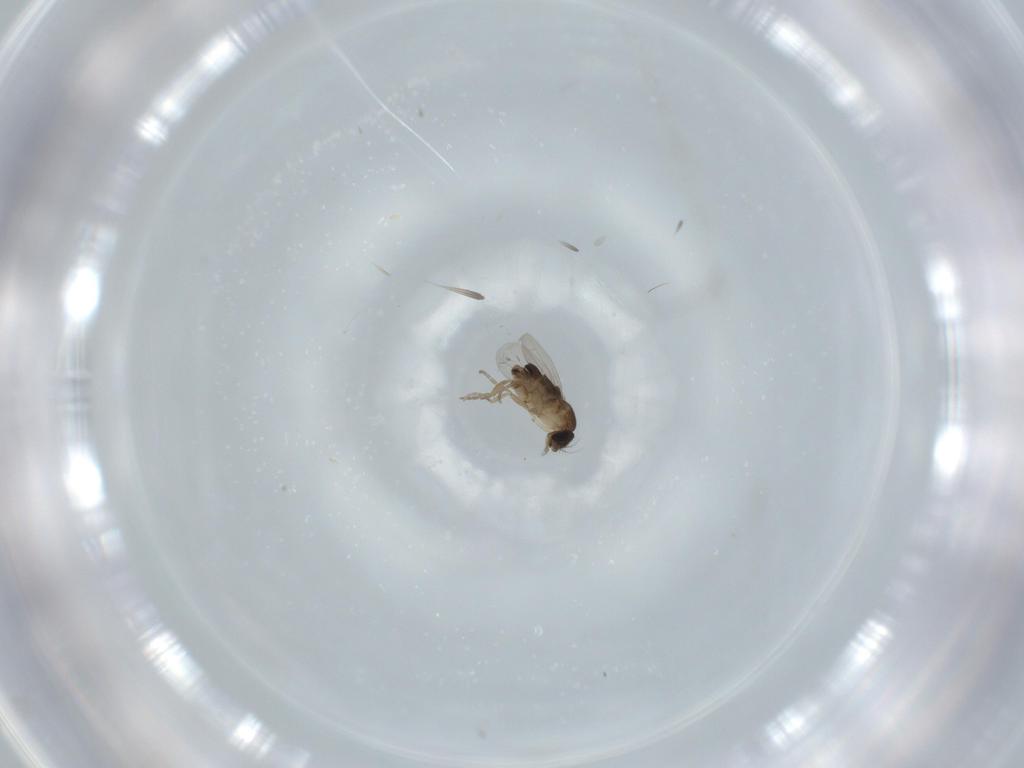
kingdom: Animalia
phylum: Arthropoda
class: Insecta
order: Diptera
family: Phoridae
